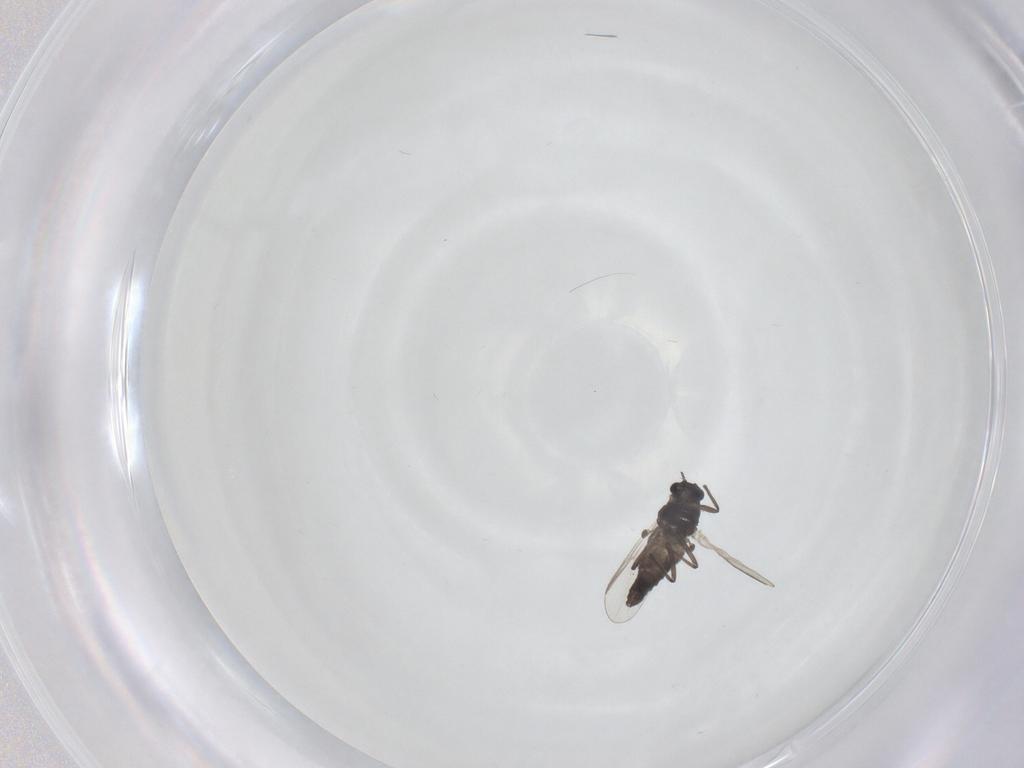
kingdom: Animalia
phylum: Arthropoda
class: Insecta
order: Diptera
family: Chironomidae
